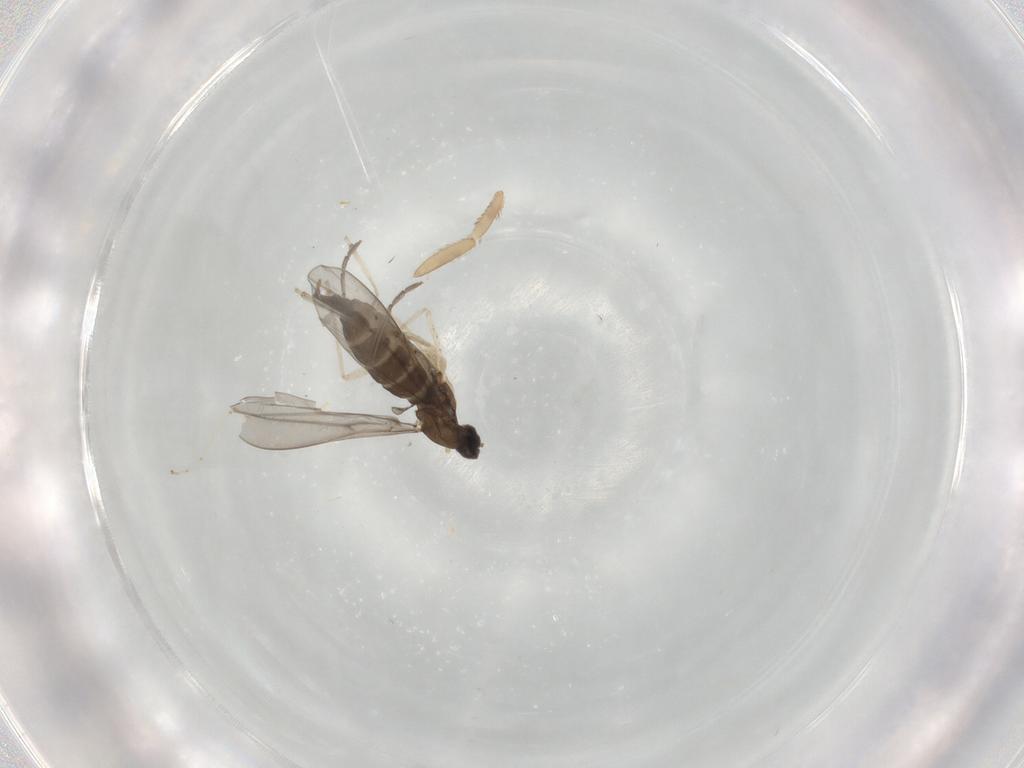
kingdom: Animalia
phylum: Arthropoda
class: Insecta
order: Diptera
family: Cecidomyiidae
